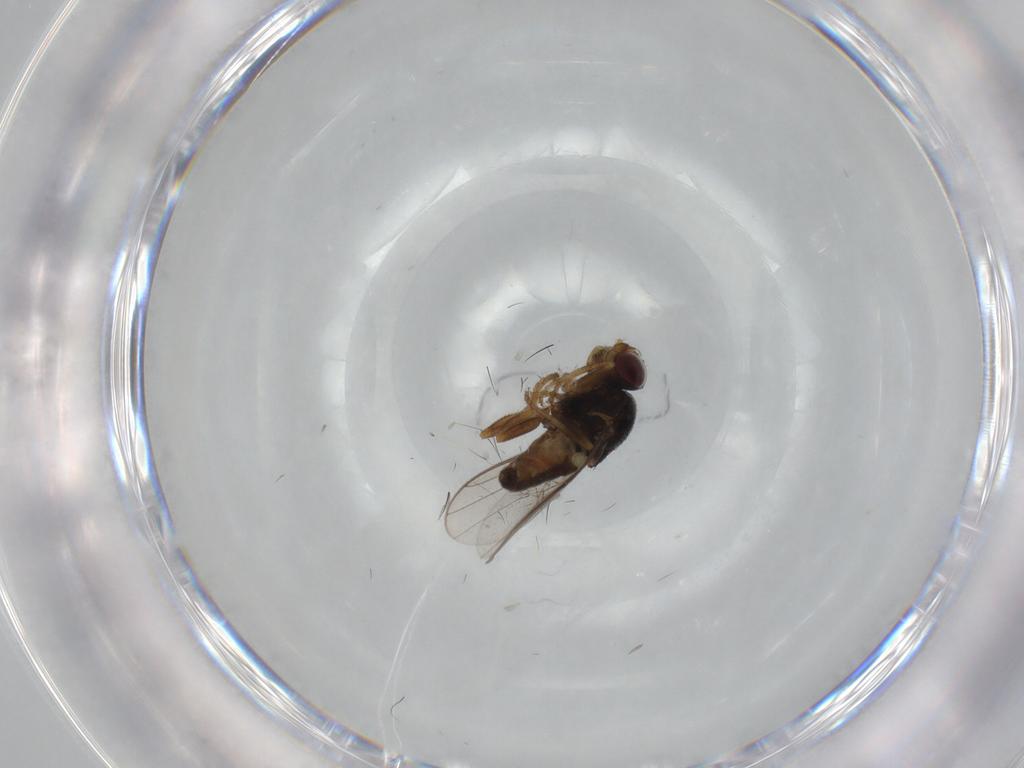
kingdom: Animalia
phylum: Arthropoda
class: Insecta
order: Diptera
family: Chloropidae
